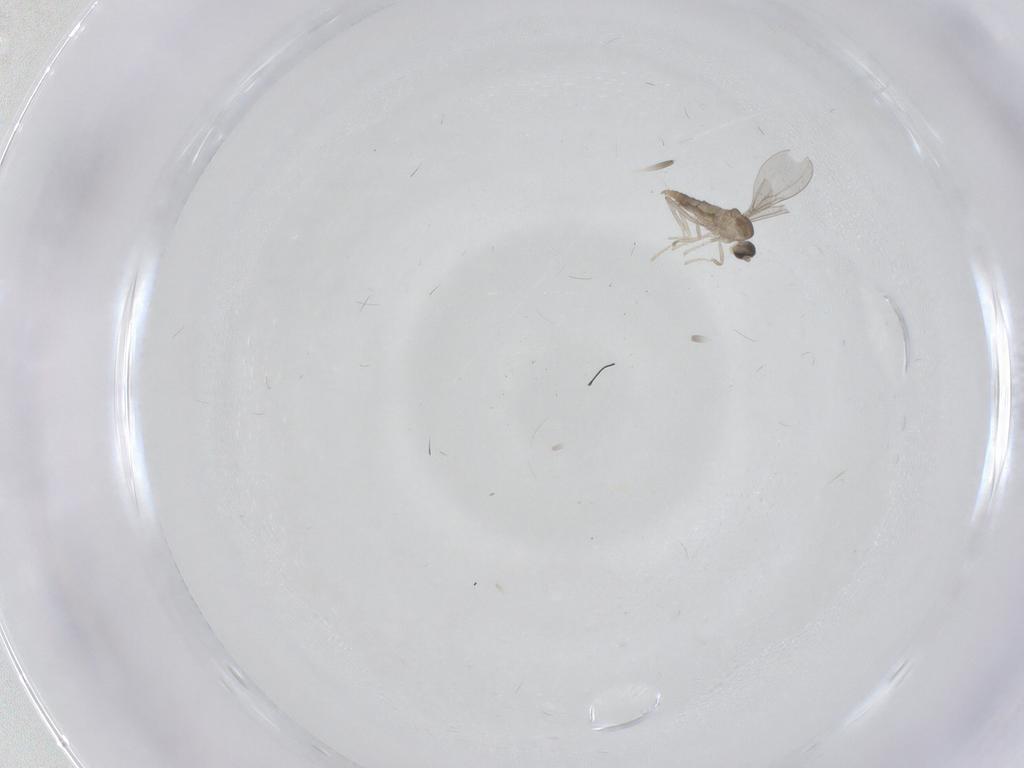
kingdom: Animalia
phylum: Arthropoda
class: Insecta
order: Diptera
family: Cecidomyiidae
